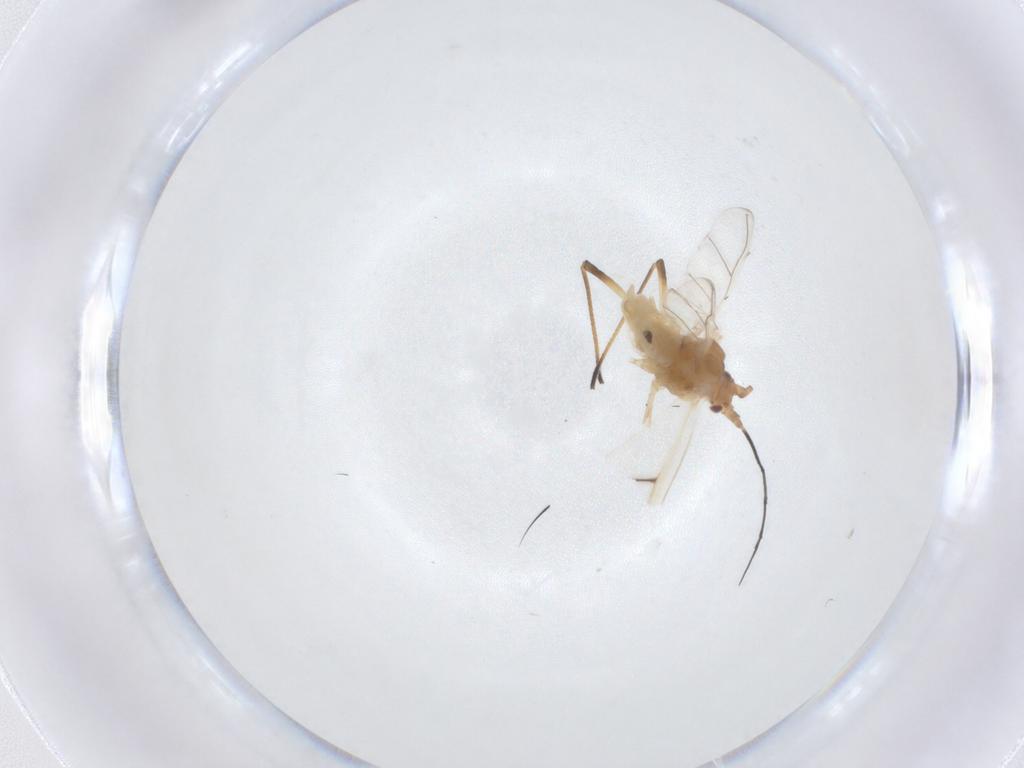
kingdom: Animalia
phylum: Arthropoda
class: Insecta
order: Hemiptera
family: Aphididae
